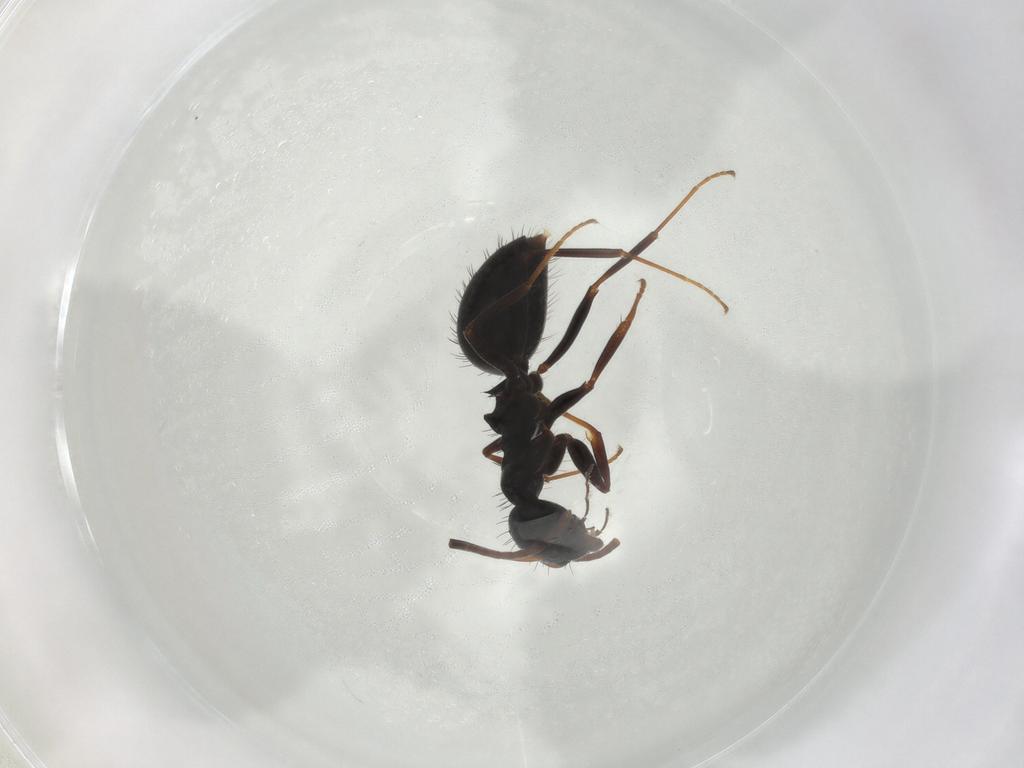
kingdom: Animalia
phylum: Arthropoda
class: Insecta
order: Hymenoptera
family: Formicidae
